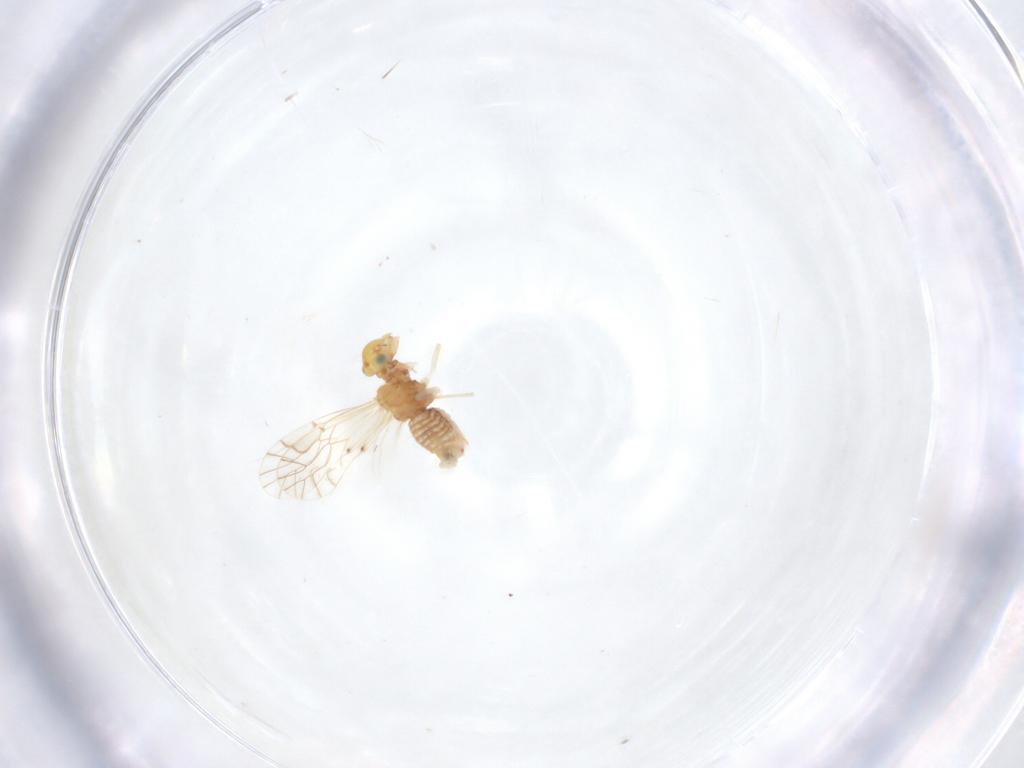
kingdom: Animalia
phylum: Arthropoda
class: Insecta
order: Psocodea
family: Lachesillidae
